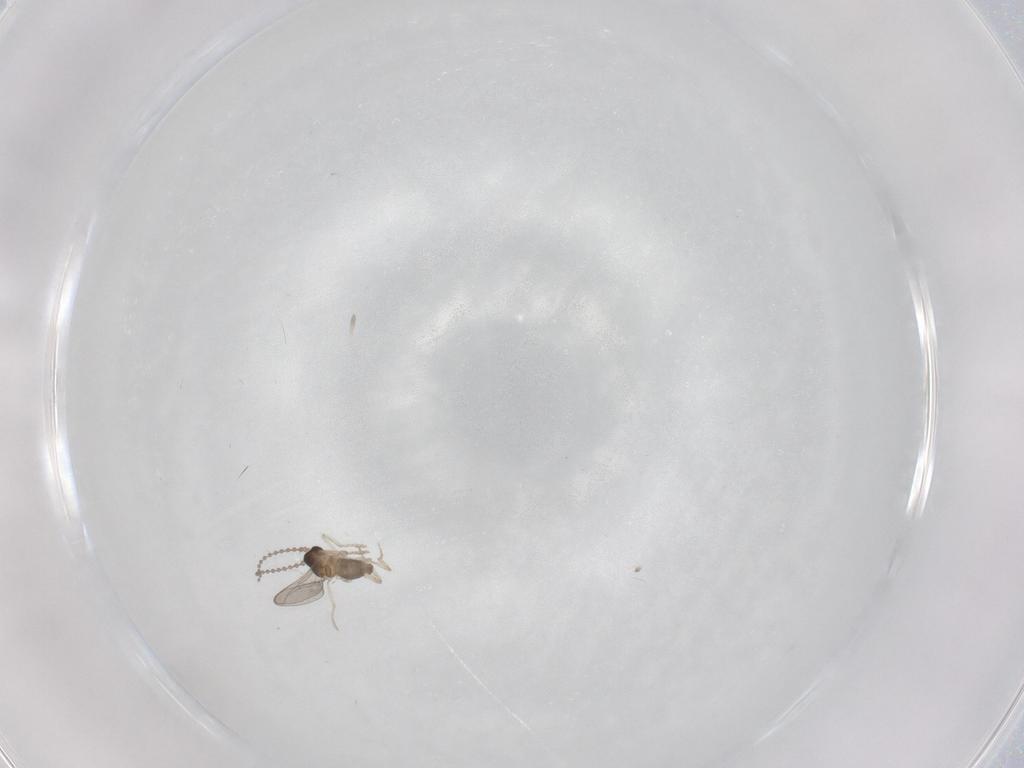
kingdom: Animalia
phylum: Arthropoda
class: Insecta
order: Diptera
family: Cecidomyiidae
